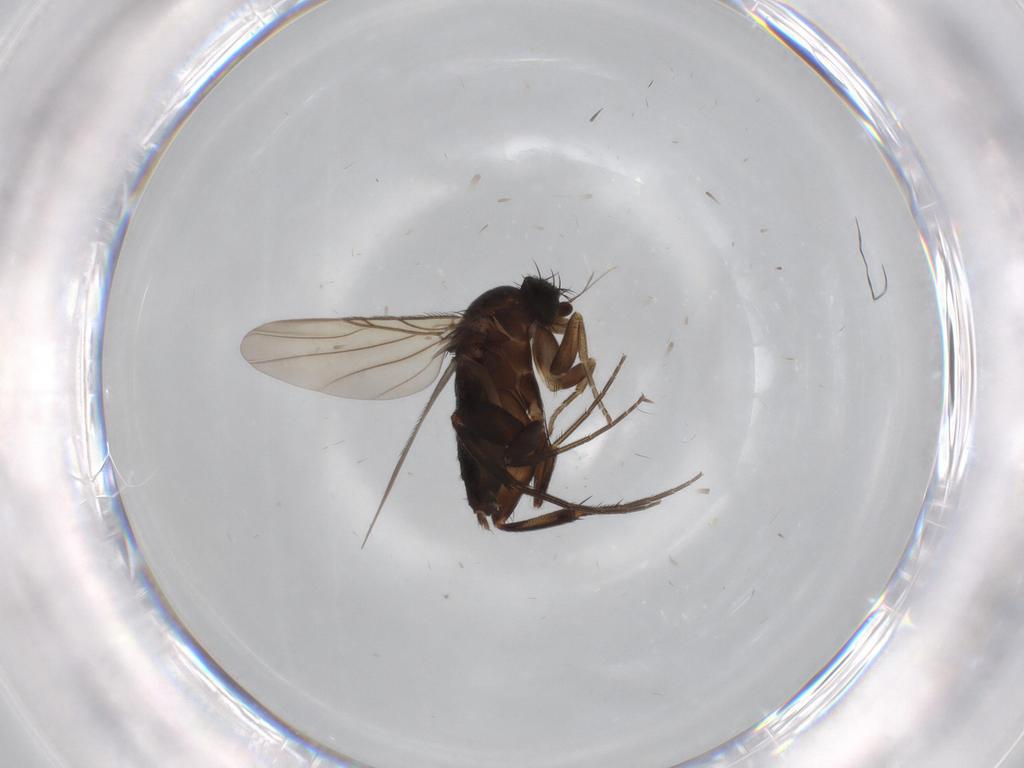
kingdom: Animalia
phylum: Arthropoda
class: Insecta
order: Diptera
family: Phoridae
